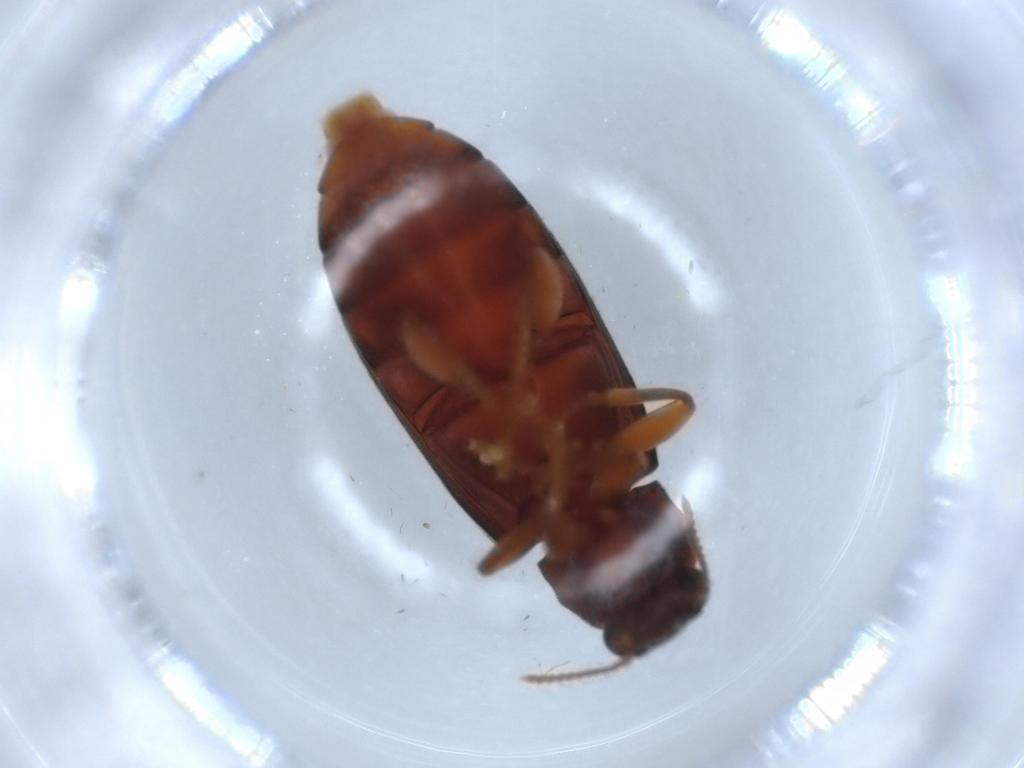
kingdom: Animalia
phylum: Arthropoda
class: Insecta
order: Coleoptera
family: Mycteridae
